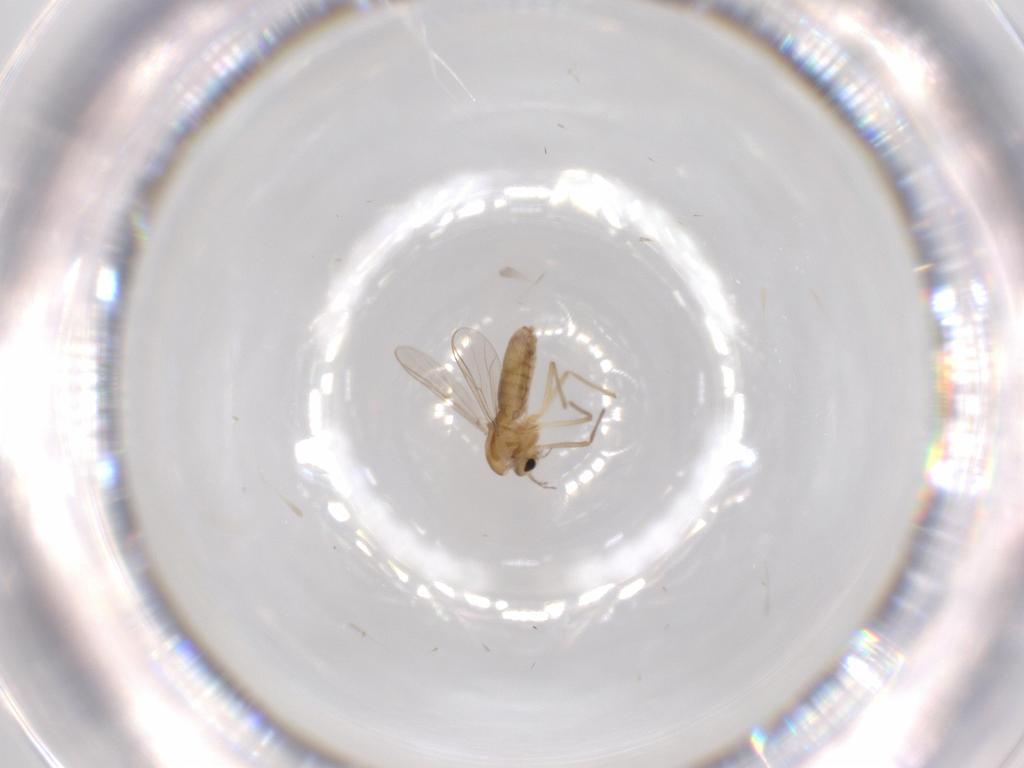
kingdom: Animalia
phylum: Arthropoda
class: Insecta
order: Diptera
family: Chironomidae
